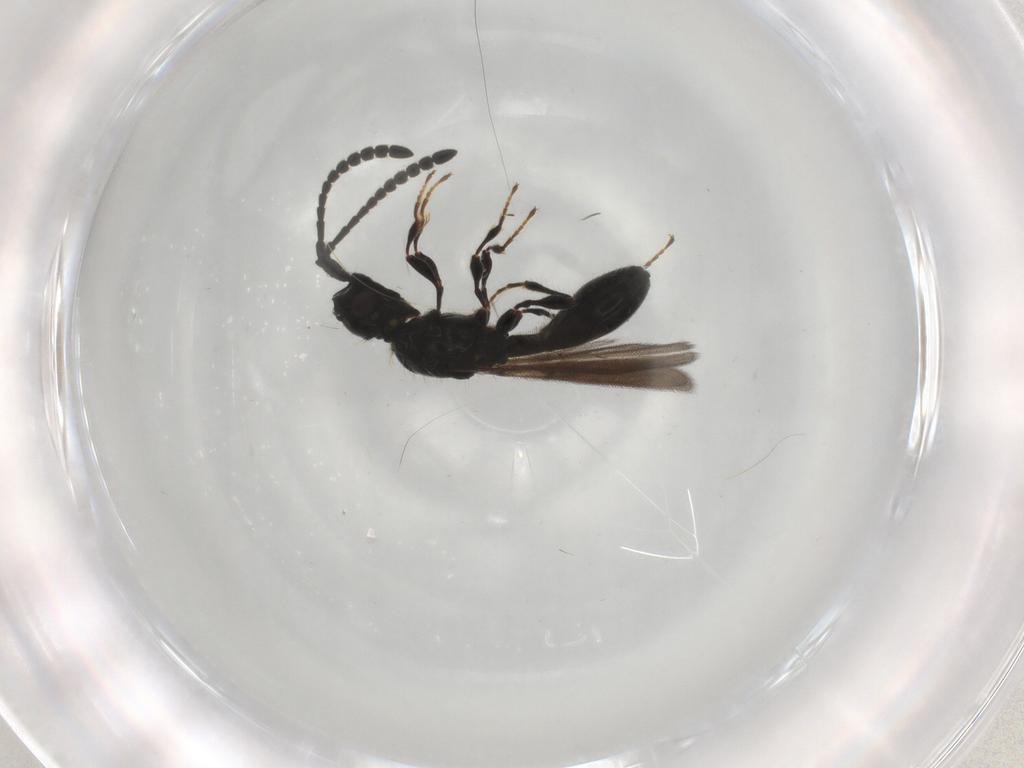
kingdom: Animalia
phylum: Arthropoda
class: Insecta
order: Hymenoptera
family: Diapriidae
